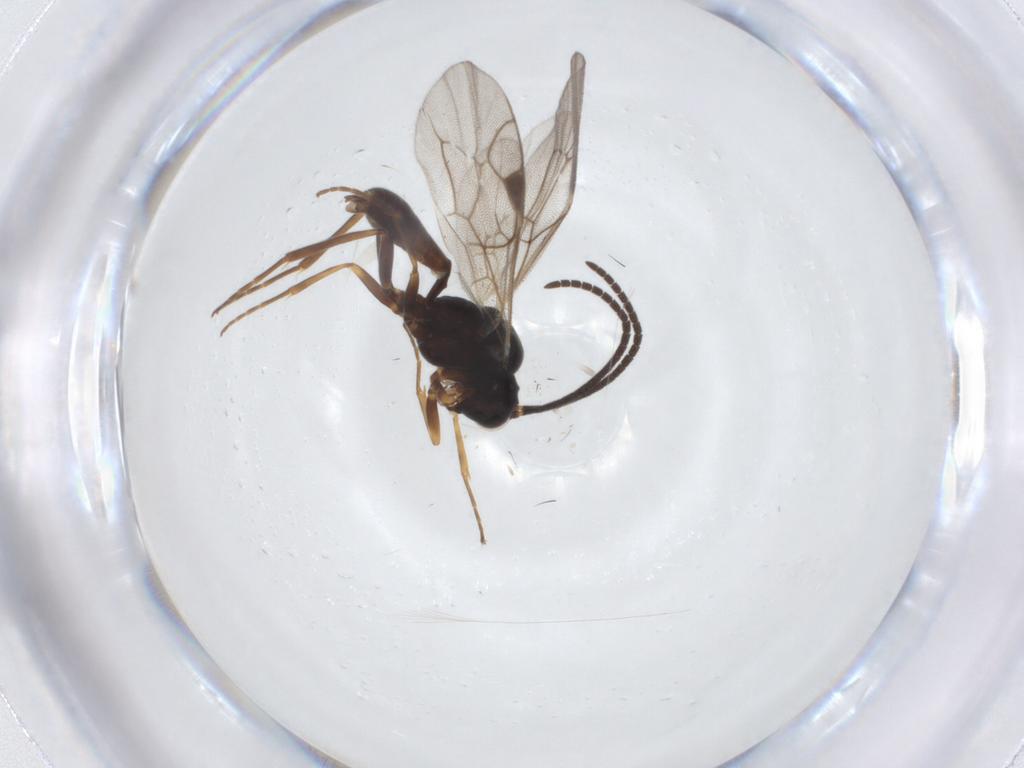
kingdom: Animalia
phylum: Arthropoda
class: Insecta
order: Hymenoptera
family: Ichneumonidae
